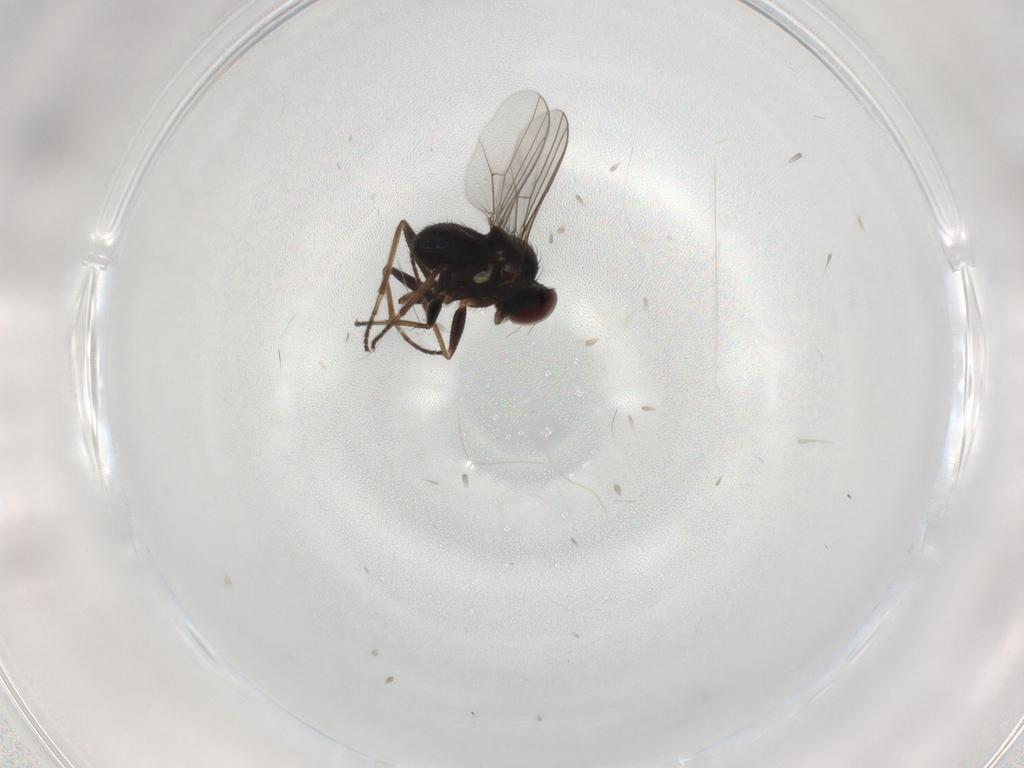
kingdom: Animalia
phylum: Arthropoda
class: Insecta
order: Diptera
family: Dolichopodidae
